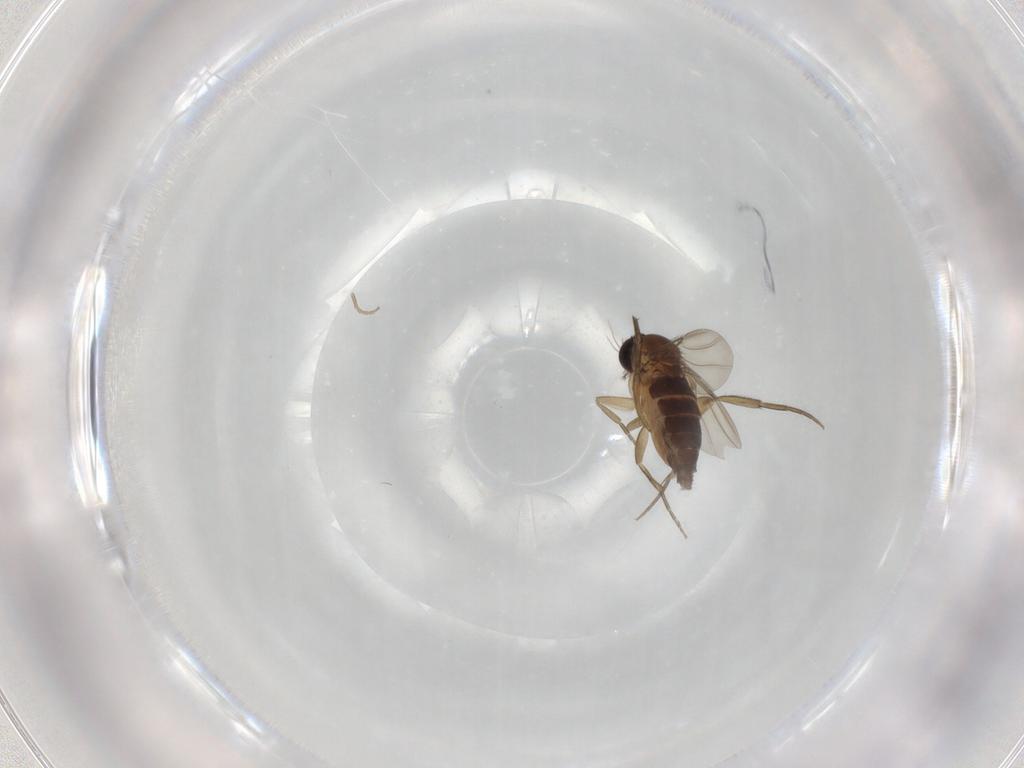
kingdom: Animalia
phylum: Arthropoda
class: Insecta
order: Diptera
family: Phoridae
